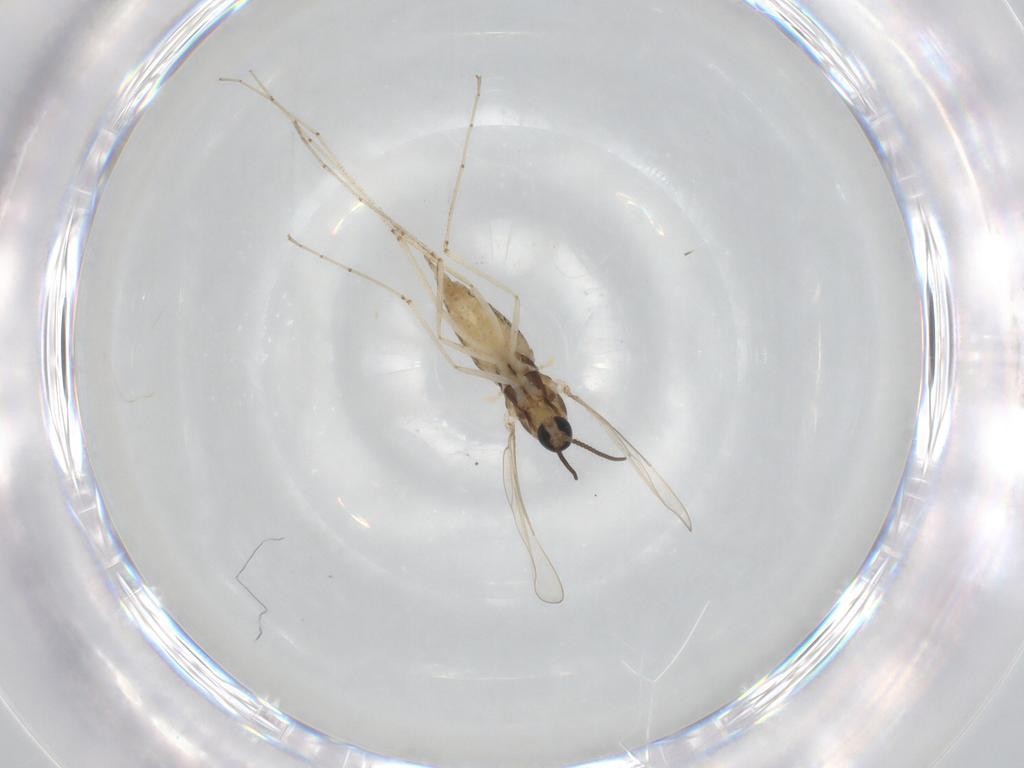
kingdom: Animalia
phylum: Arthropoda
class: Insecta
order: Diptera
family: Cecidomyiidae
